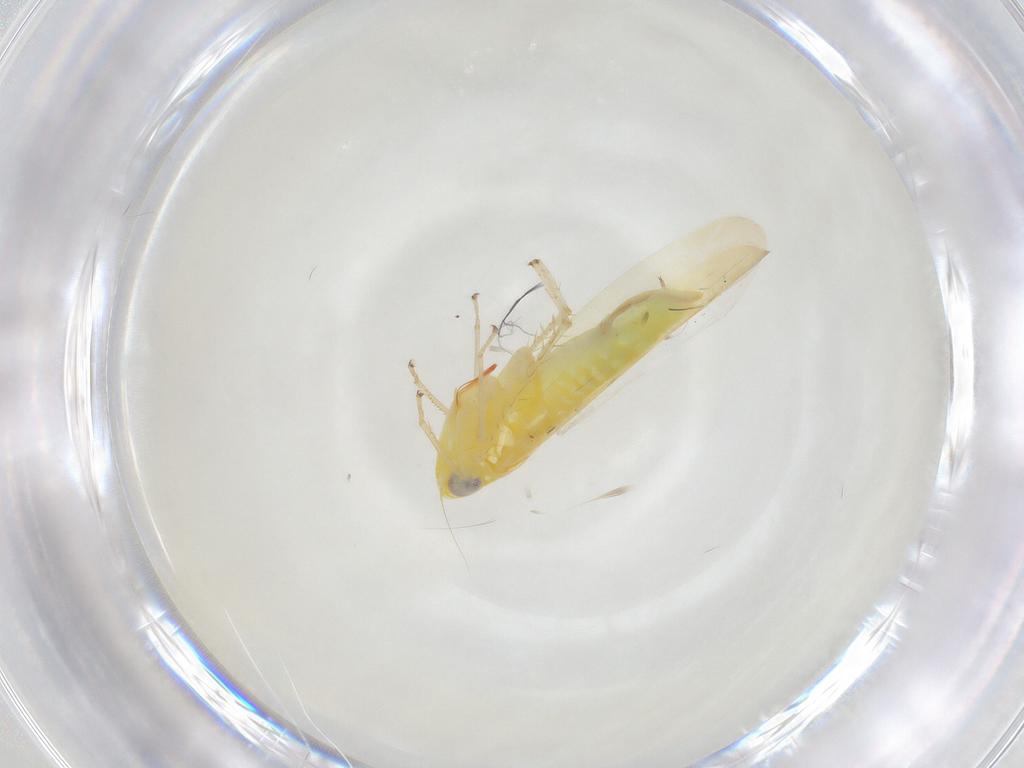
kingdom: Animalia
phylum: Arthropoda
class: Insecta
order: Hemiptera
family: Cicadellidae
